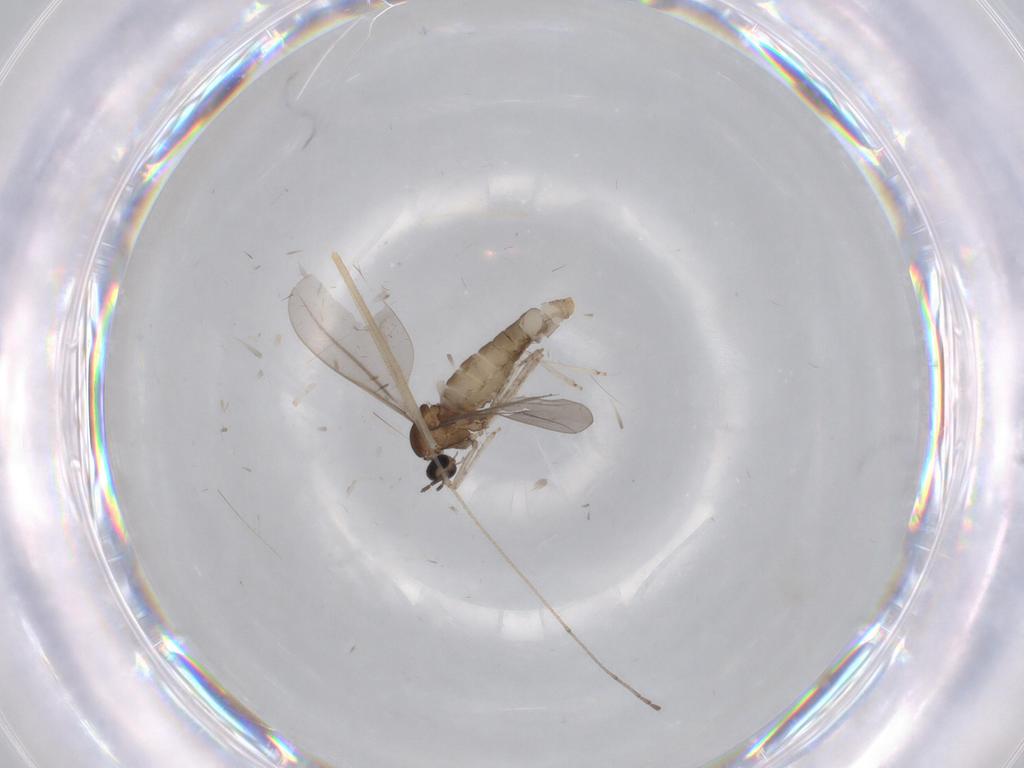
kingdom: Animalia
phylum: Arthropoda
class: Insecta
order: Diptera
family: Limoniidae
